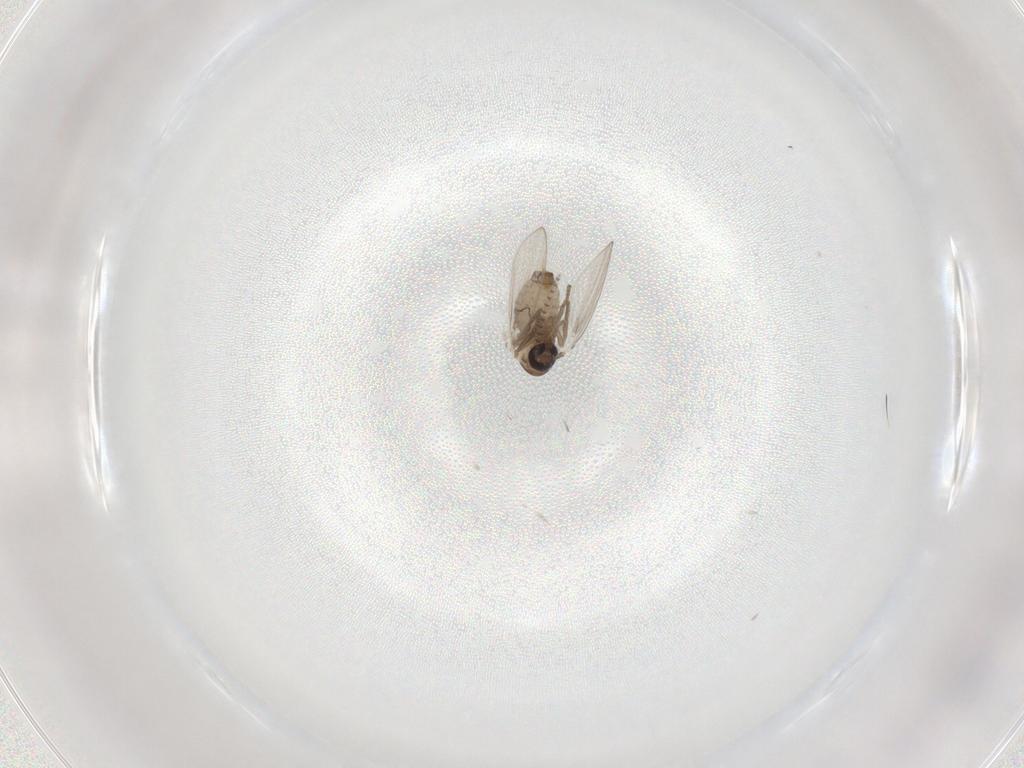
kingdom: Animalia
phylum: Arthropoda
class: Insecta
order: Diptera
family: Psychodidae
